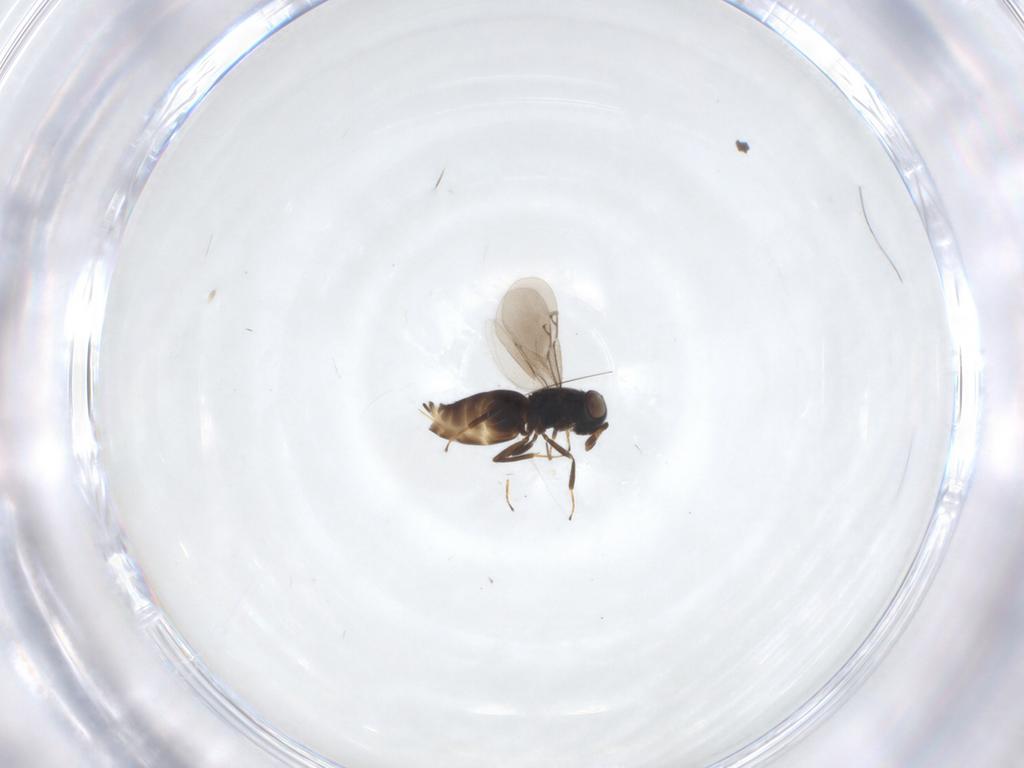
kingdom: Animalia
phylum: Arthropoda
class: Insecta
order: Hymenoptera
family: Eunotidae
